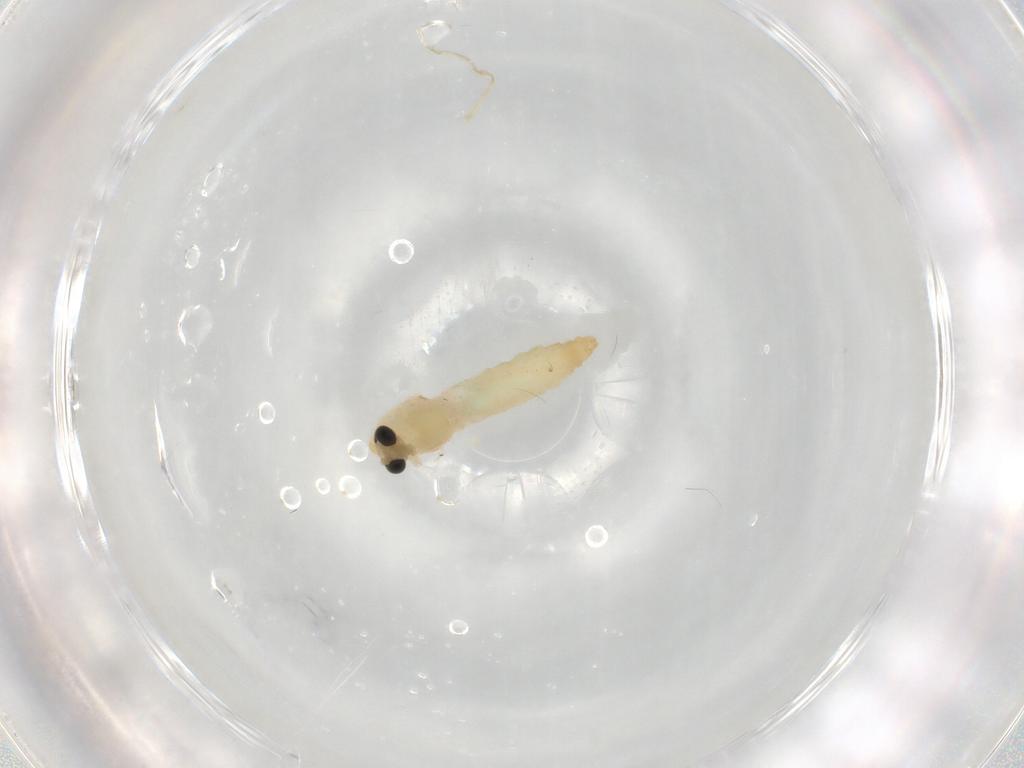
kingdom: Animalia
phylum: Arthropoda
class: Insecta
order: Diptera
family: Chironomidae
